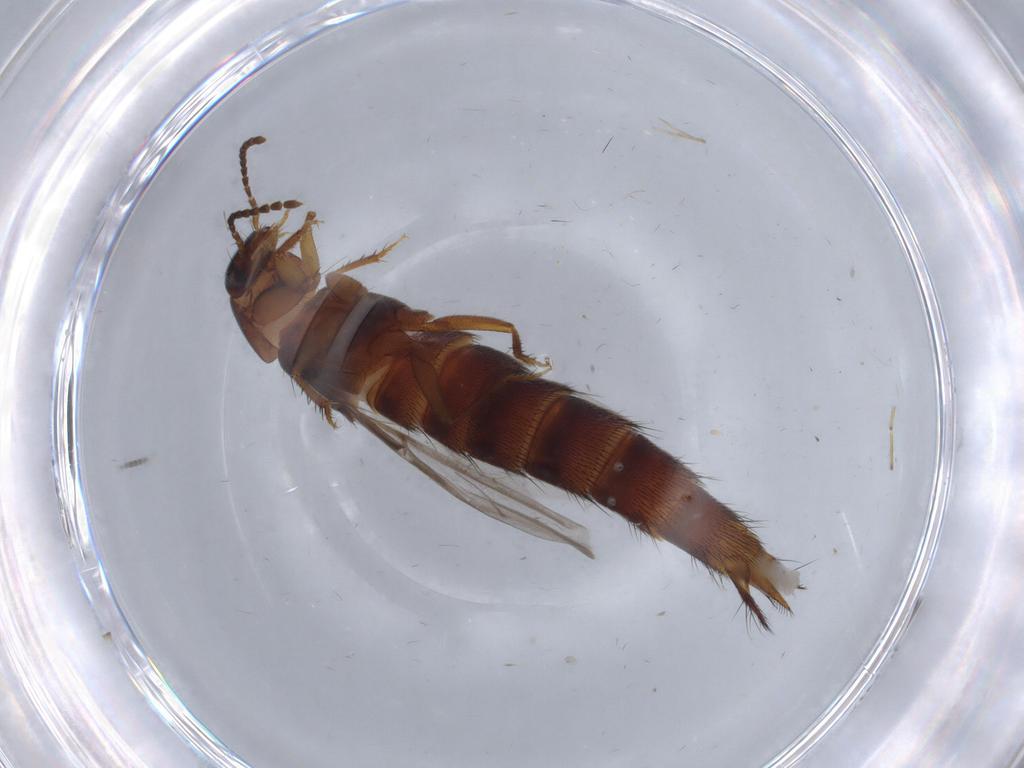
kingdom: Animalia
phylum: Arthropoda
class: Insecta
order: Coleoptera
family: Staphylinidae
